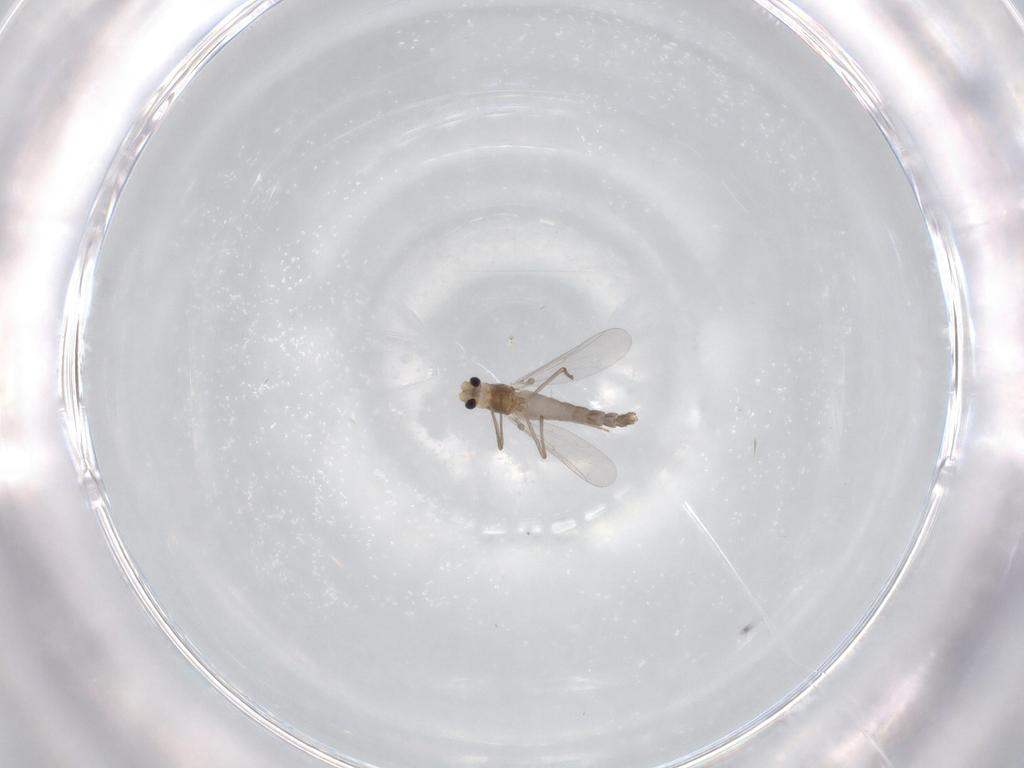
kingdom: Animalia
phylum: Arthropoda
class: Insecta
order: Diptera
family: Chironomidae
